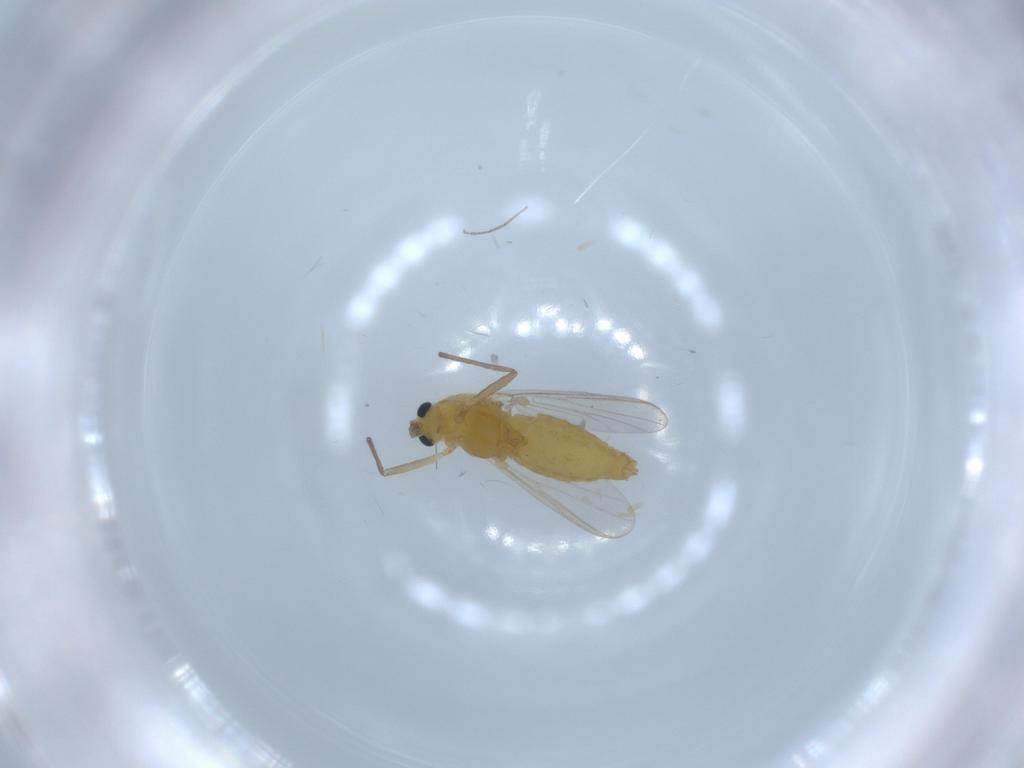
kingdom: Animalia
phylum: Arthropoda
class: Insecta
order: Diptera
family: Chironomidae
